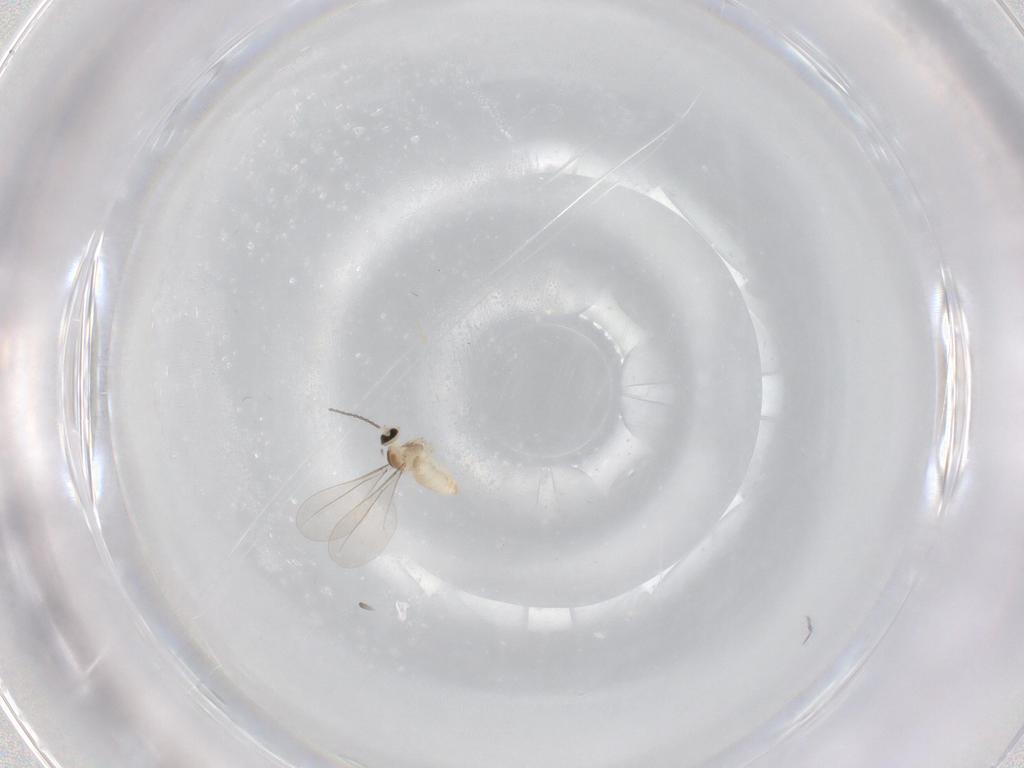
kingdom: Animalia
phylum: Arthropoda
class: Insecta
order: Diptera
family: Cecidomyiidae
